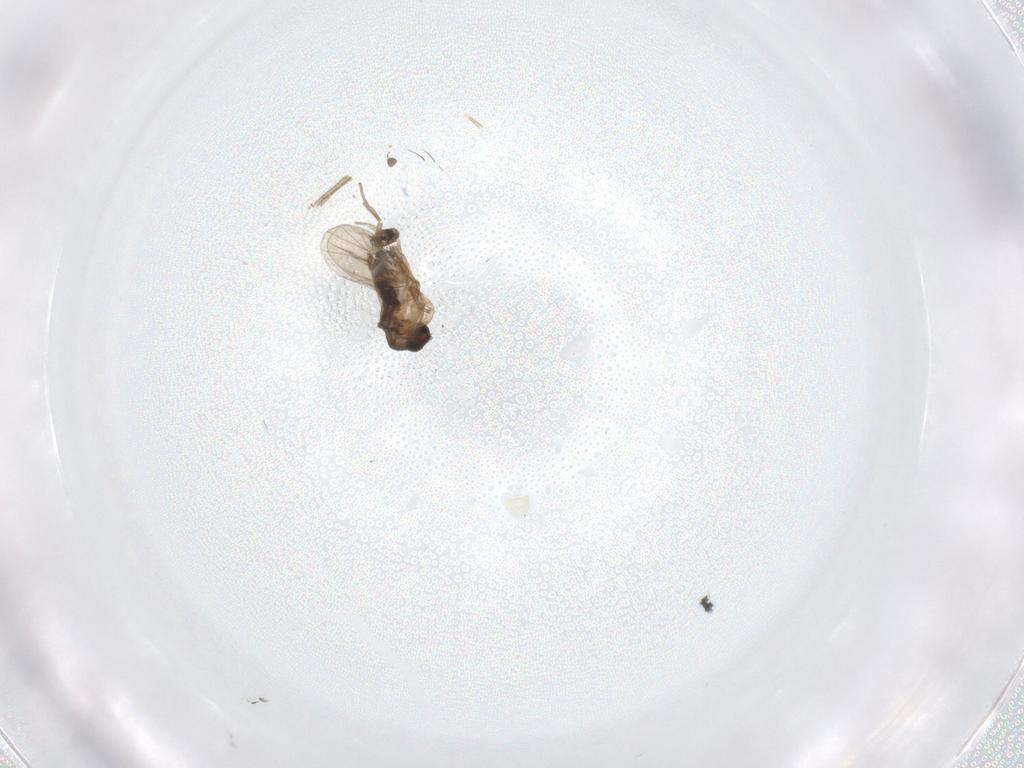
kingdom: Animalia
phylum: Arthropoda
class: Insecta
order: Diptera
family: Phoridae
